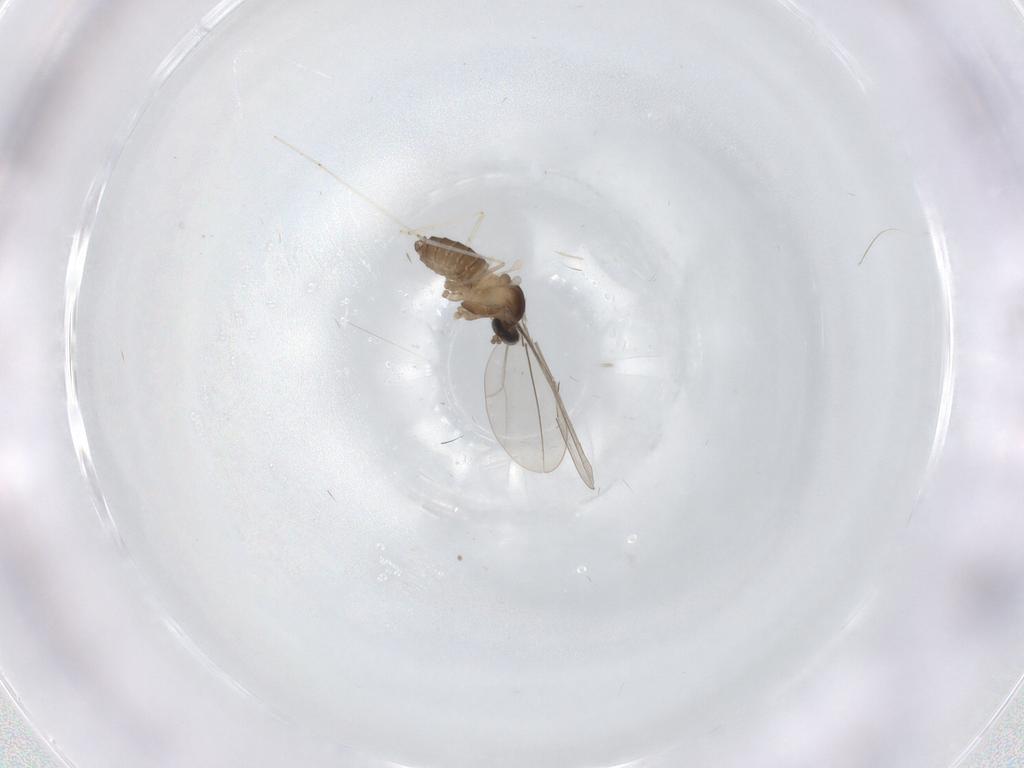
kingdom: Animalia
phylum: Arthropoda
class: Insecta
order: Diptera
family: Cecidomyiidae
